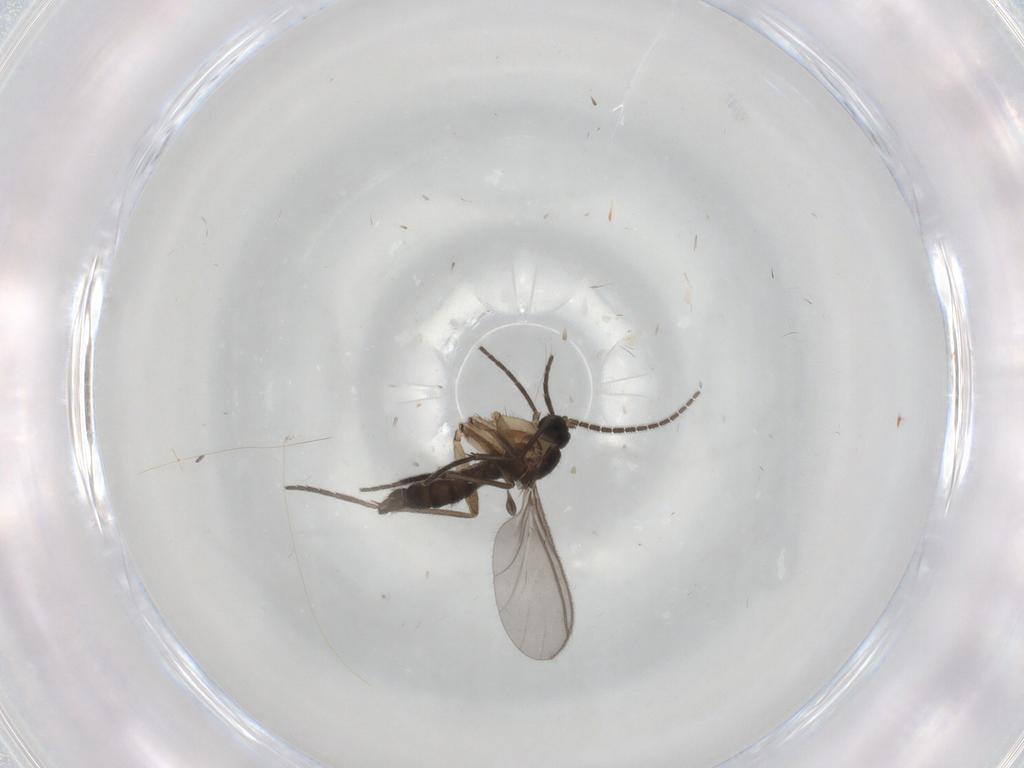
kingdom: Animalia
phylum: Arthropoda
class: Insecta
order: Diptera
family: Sciaridae
